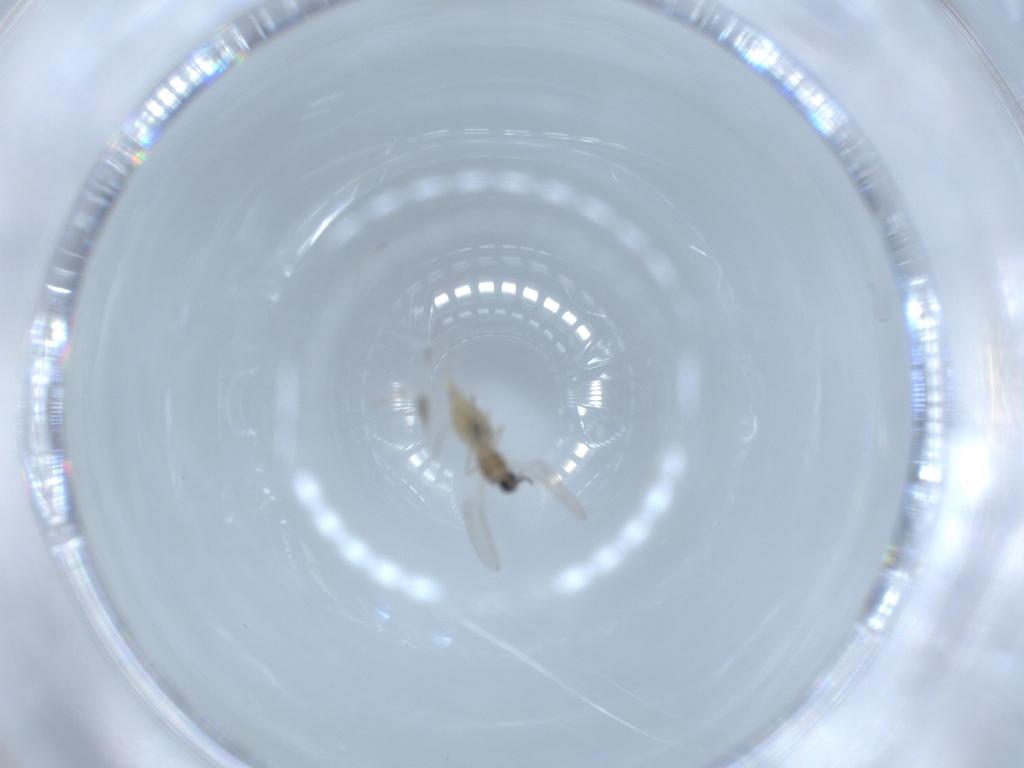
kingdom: Animalia
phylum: Arthropoda
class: Insecta
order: Diptera
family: Cecidomyiidae
